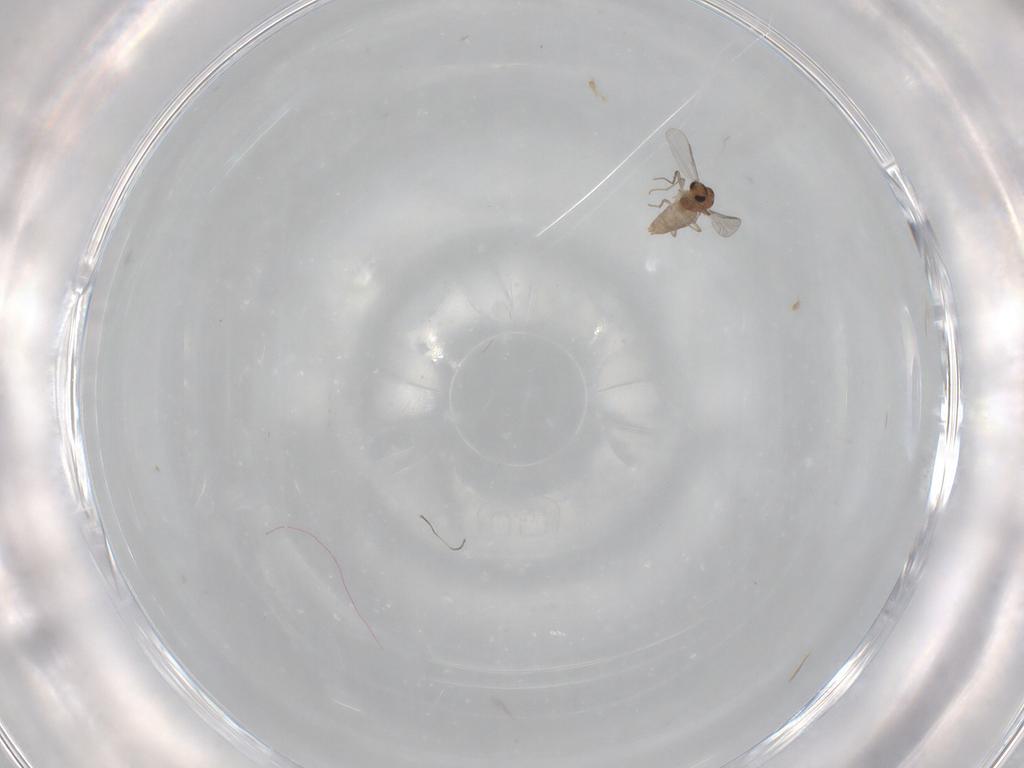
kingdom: Animalia
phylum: Arthropoda
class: Insecta
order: Diptera
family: Chironomidae
